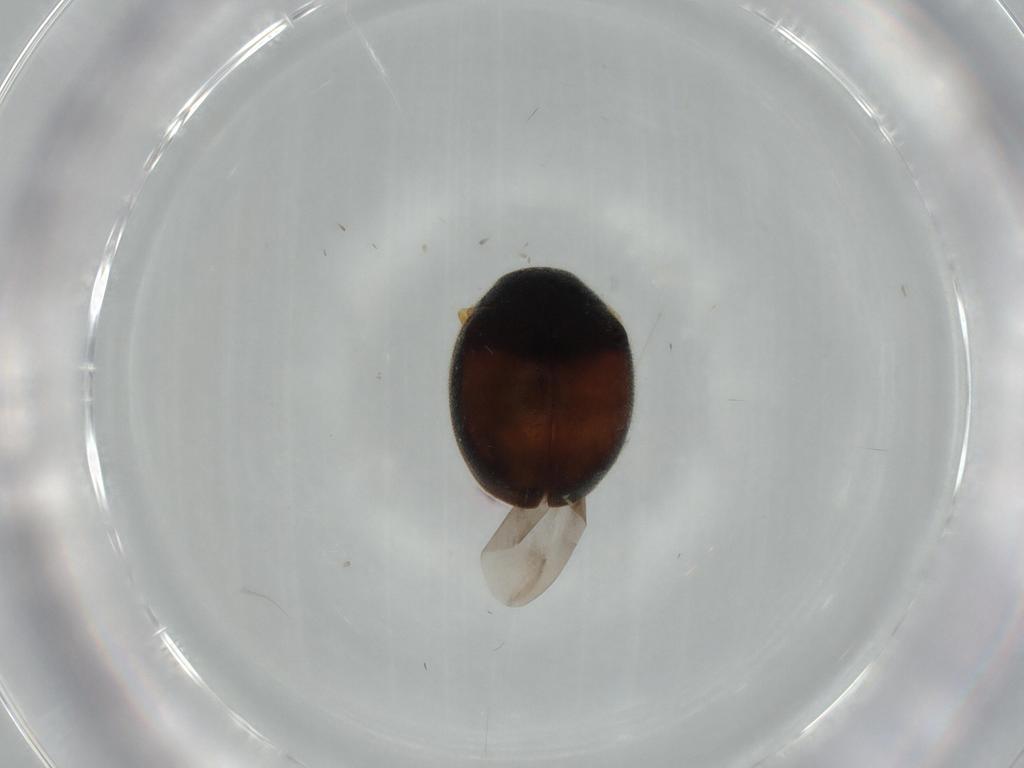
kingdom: Animalia
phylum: Arthropoda
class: Insecta
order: Coleoptera
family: Coccinellidae
